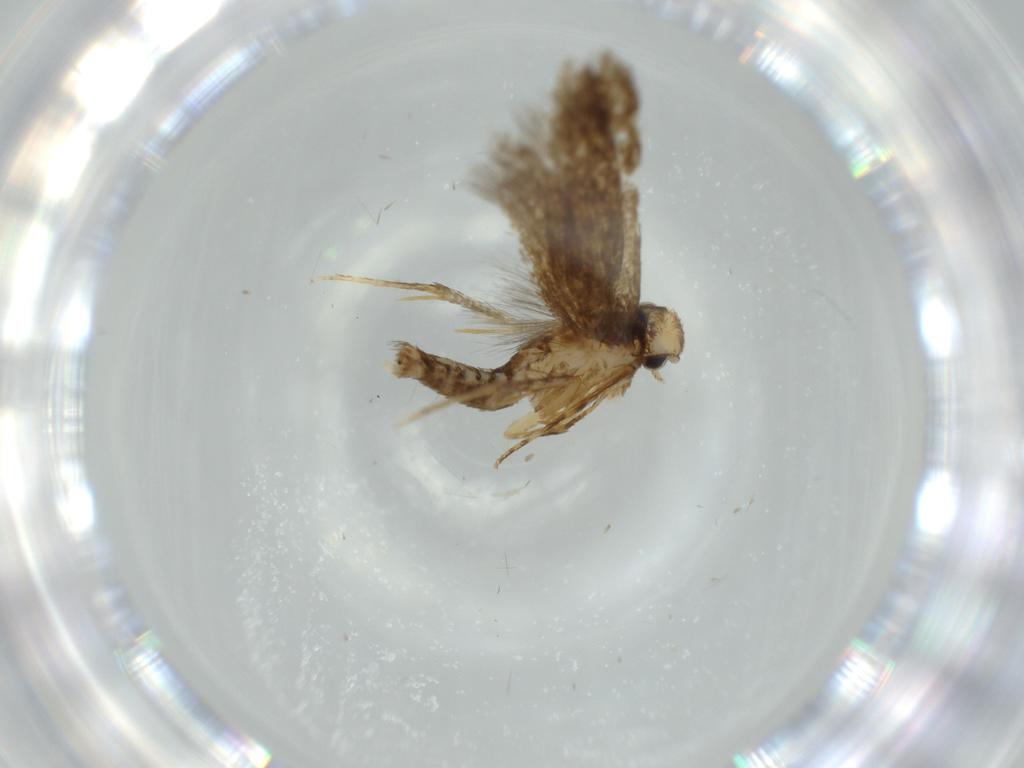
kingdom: Animalia
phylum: Arthropoda
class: Insecta
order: Lepidoptera
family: Tineidae
